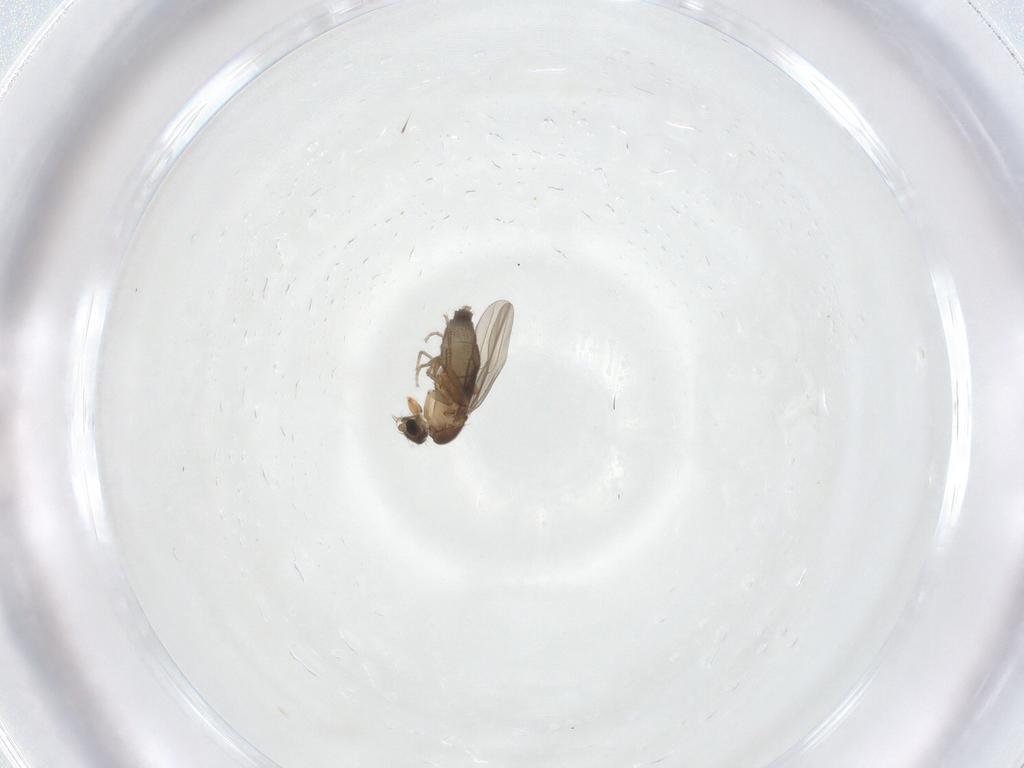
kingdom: Animalia
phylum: Arthropoda
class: Insecta
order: Diptera
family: Phoridae
